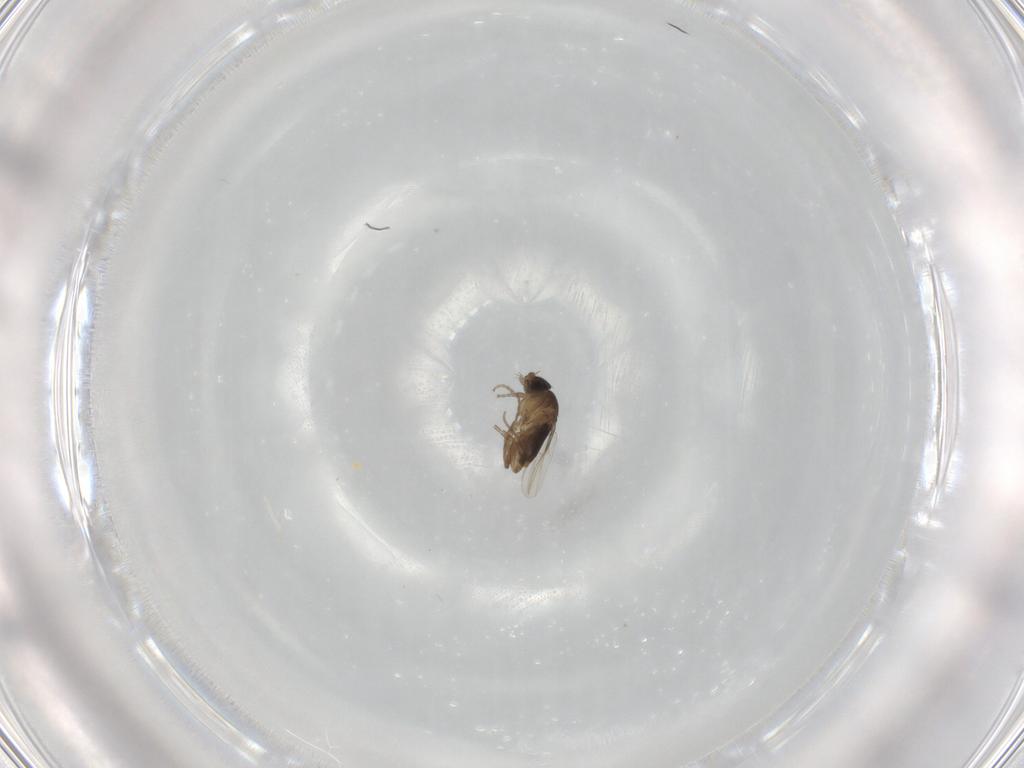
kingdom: Animalia
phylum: Arthropoda
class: Insecta
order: Diptera
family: Phoridae
